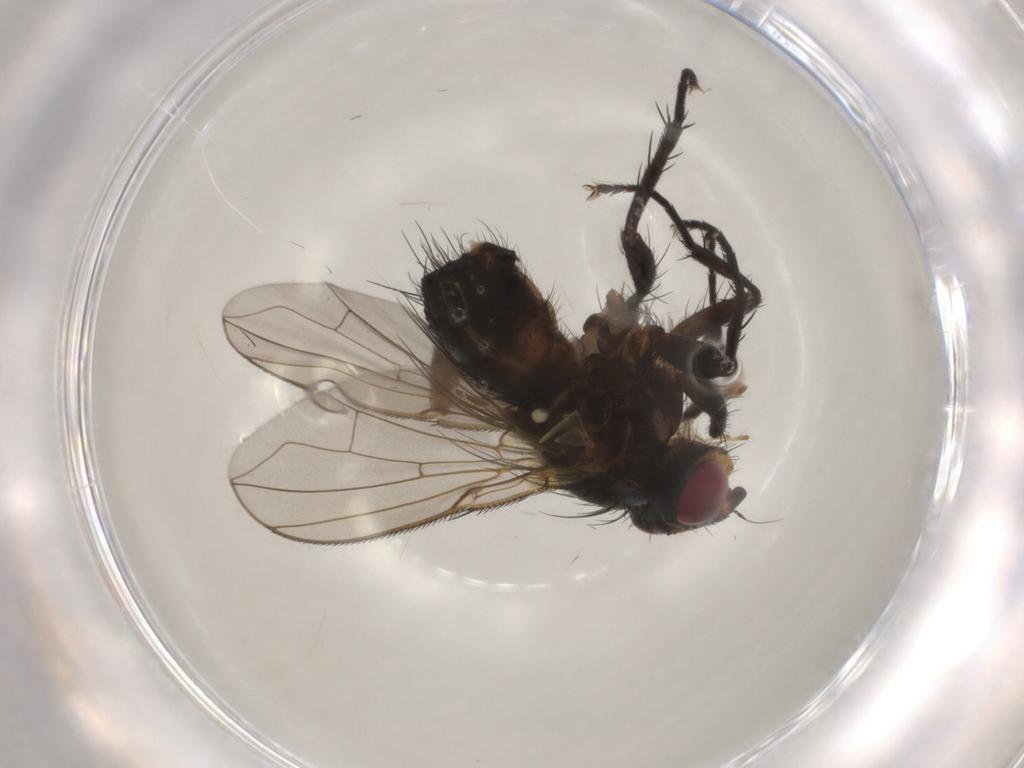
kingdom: Animalia
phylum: Arthropoda
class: Insecta
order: Diptera
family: Calliphoridae
